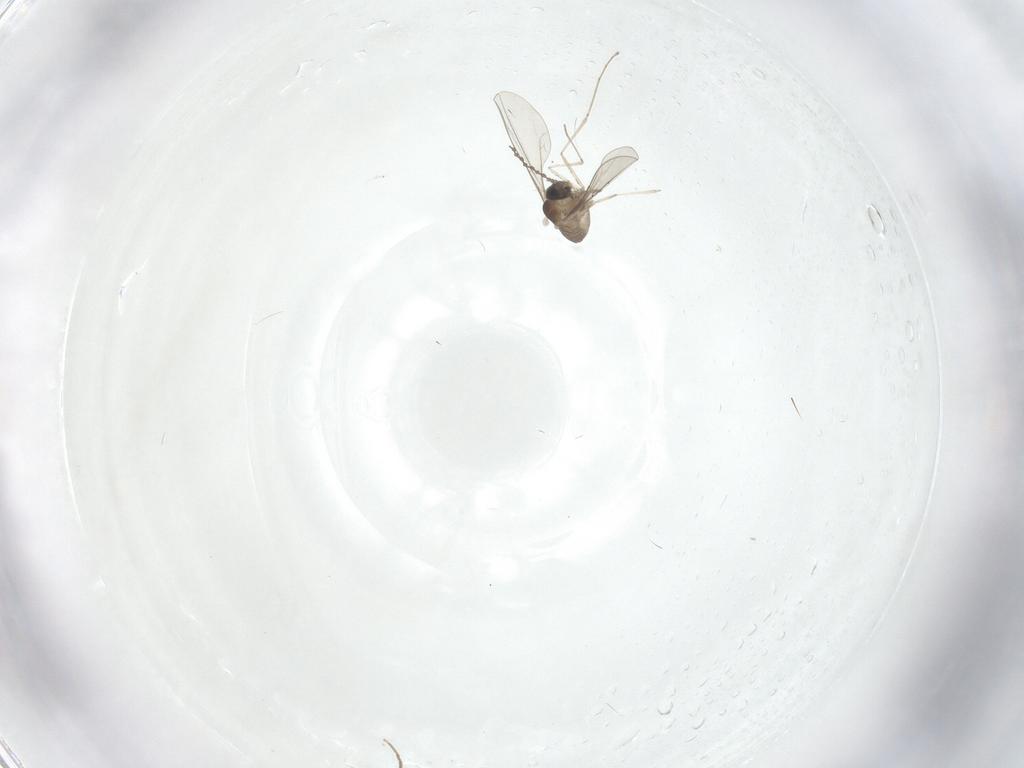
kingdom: Animalia
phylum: Arthropoda
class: Insecta
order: Diptera
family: Cecidomyiidae
